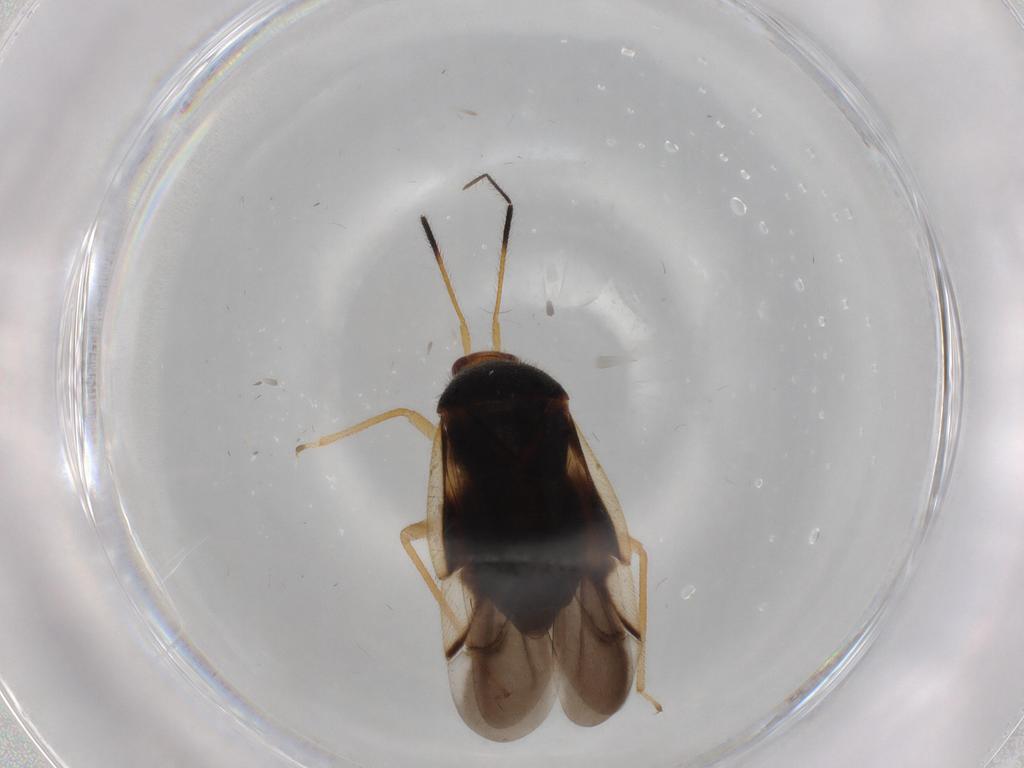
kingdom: Animalia
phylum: Arthropoda
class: Insecta
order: Hemiptera
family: Miridae
